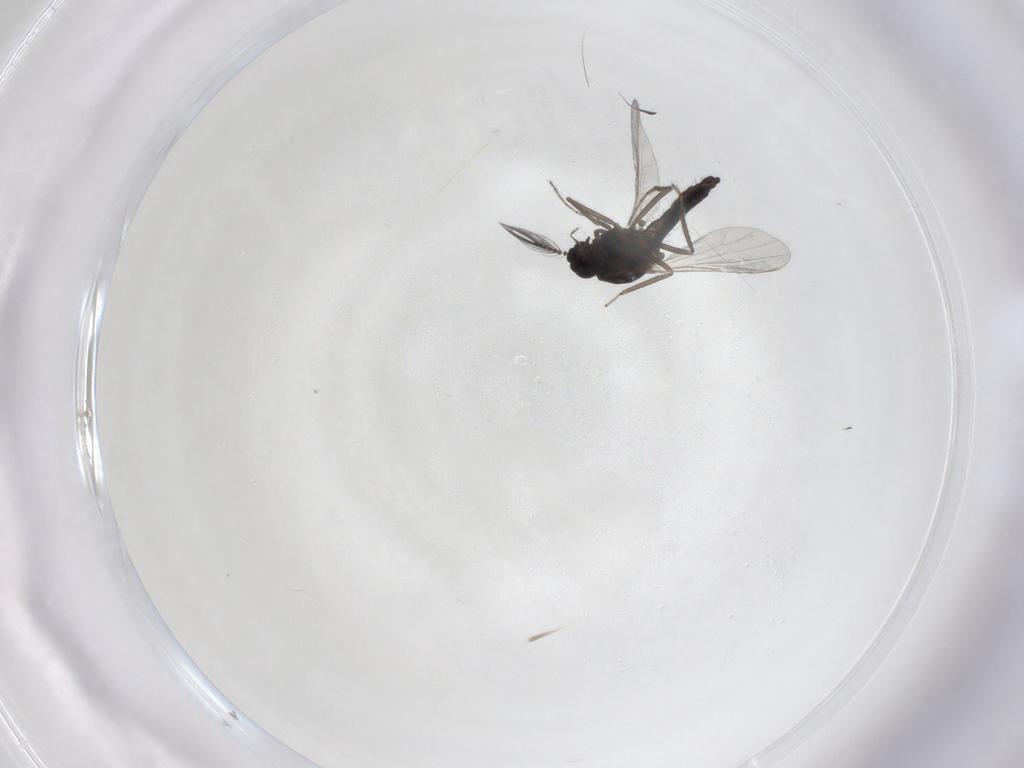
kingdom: Animalia
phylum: Arthropoda
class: Insecta
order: Diptera
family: Ceratopogonidae
